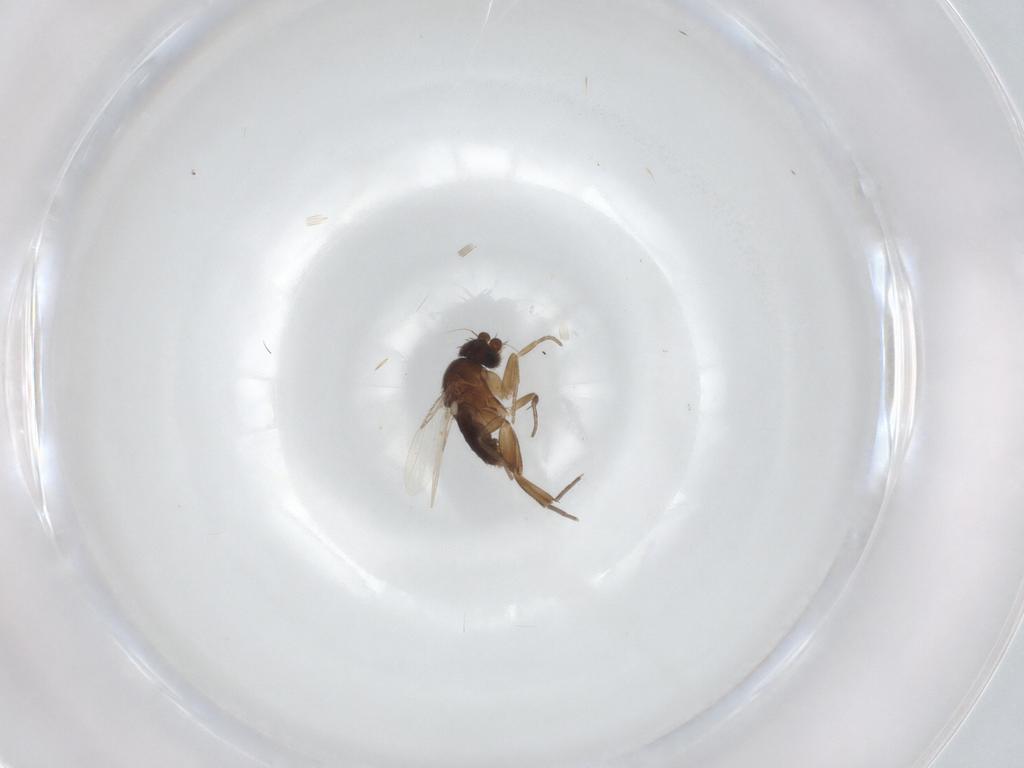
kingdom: Animalia
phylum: Arthropoda
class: Insecta
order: Diptera
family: Phoridae
